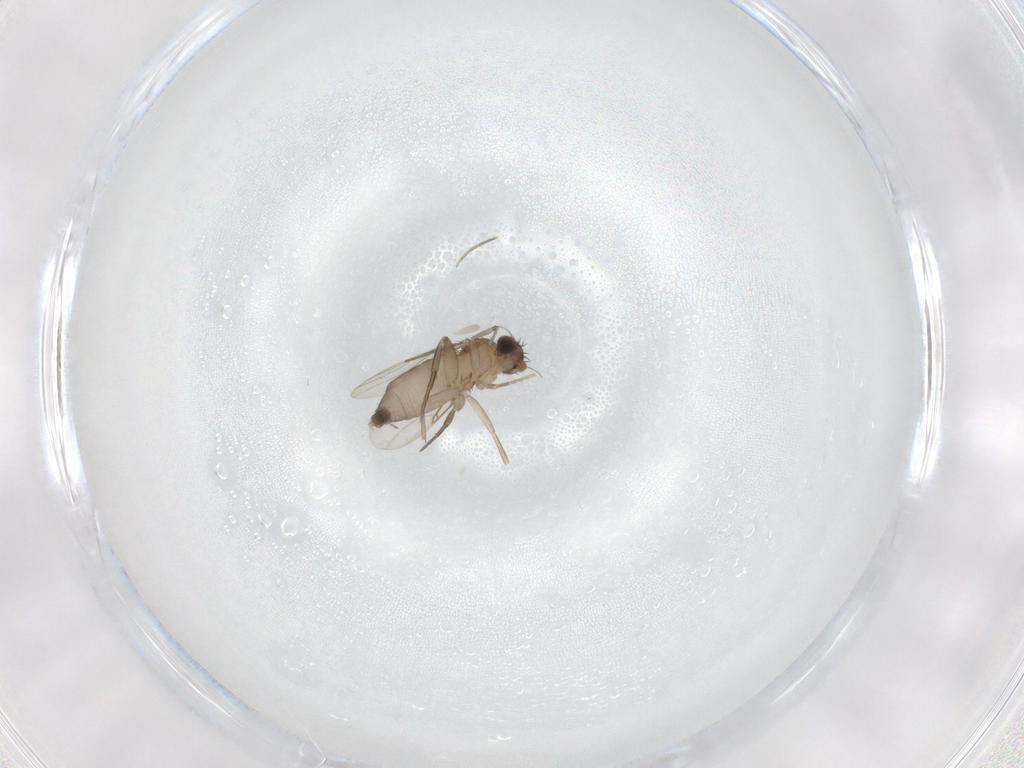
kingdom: Animalia
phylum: Arthropoda
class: Insecta
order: Diptera
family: Phoridae
